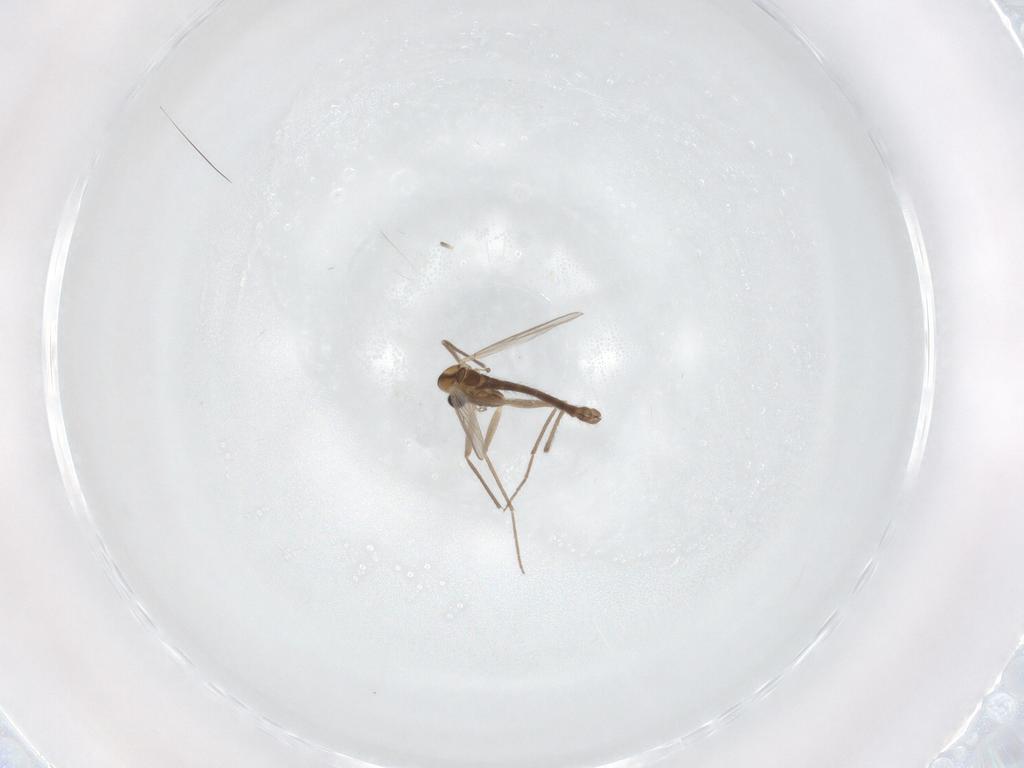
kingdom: Animalia
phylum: Arthropoda
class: Insecta
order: Diptera
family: Chironomidae
